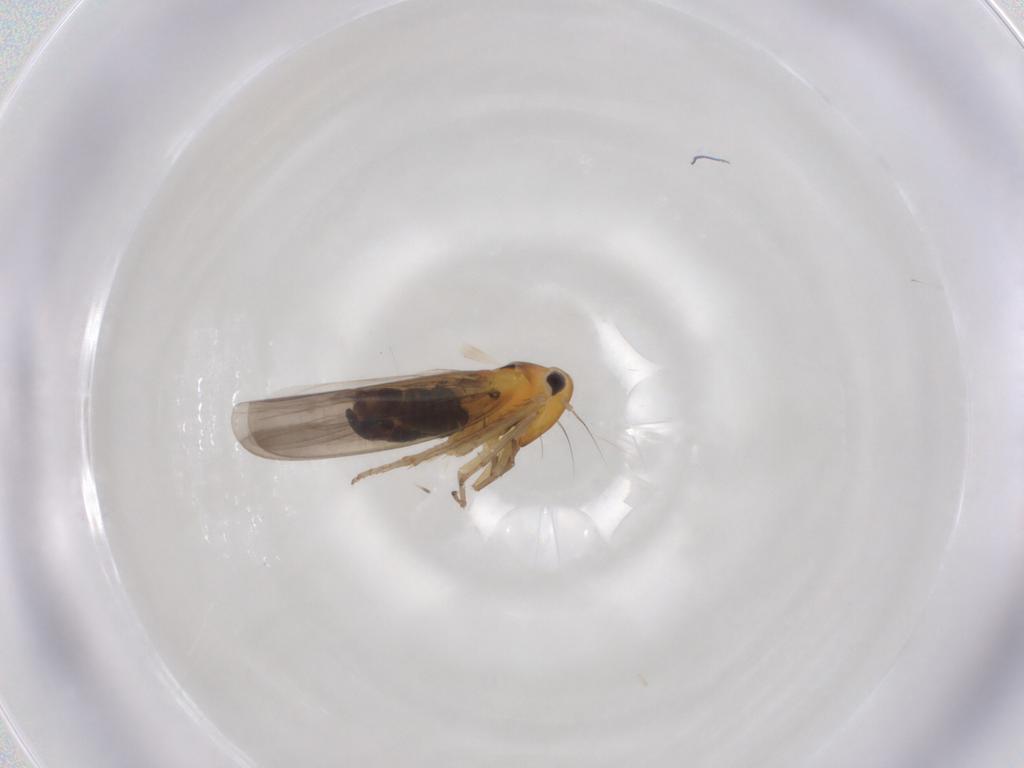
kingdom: Animalia
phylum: Arthropoda
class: Insecta
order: Hemiptera
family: Cicadellidae
